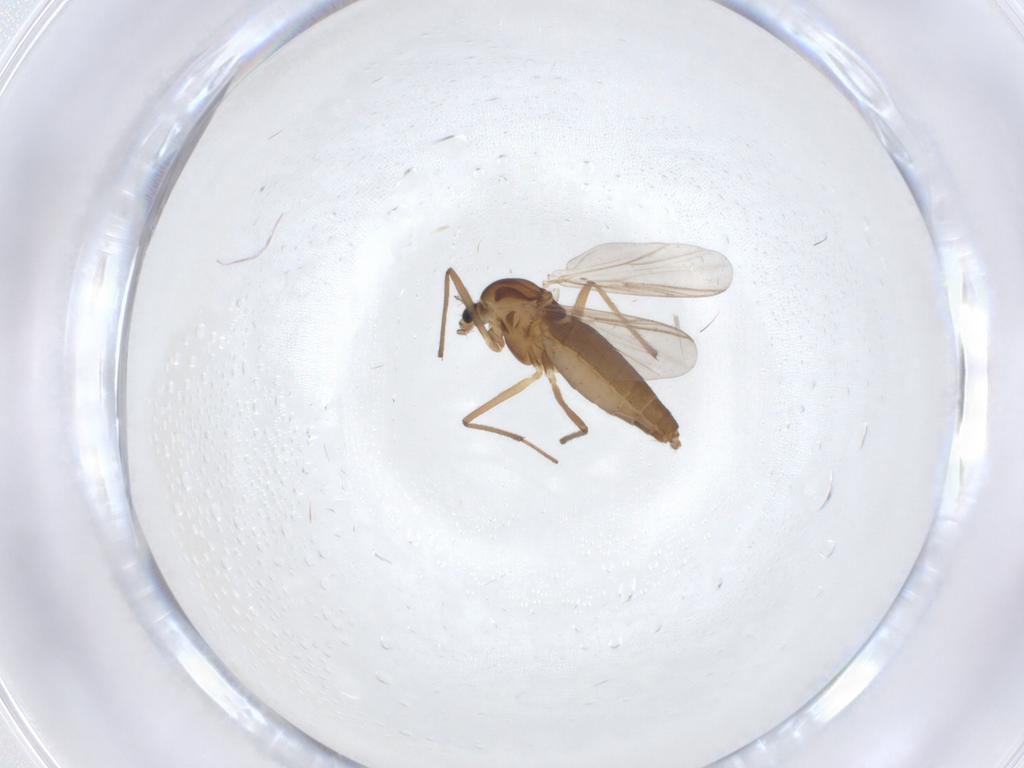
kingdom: Animalia
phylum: Arthropoda
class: Insecta
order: Diptera
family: Chironomidae
